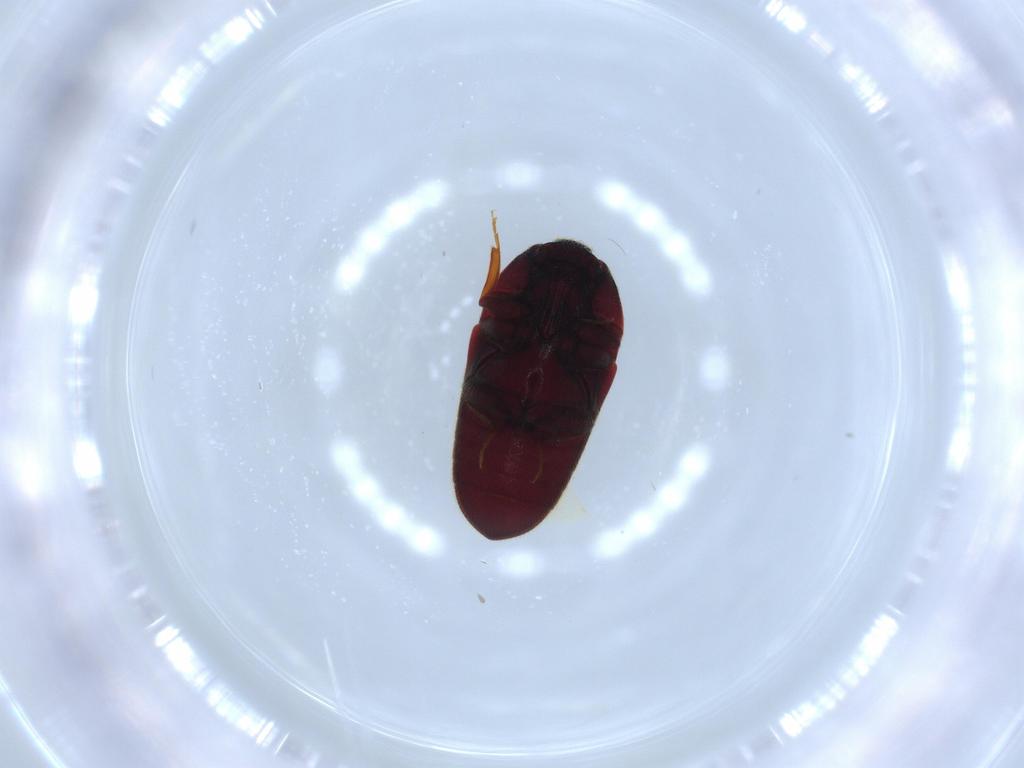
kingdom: Animalia
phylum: Arthropoda
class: Insecta
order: Coleoptera
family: Throscidae
